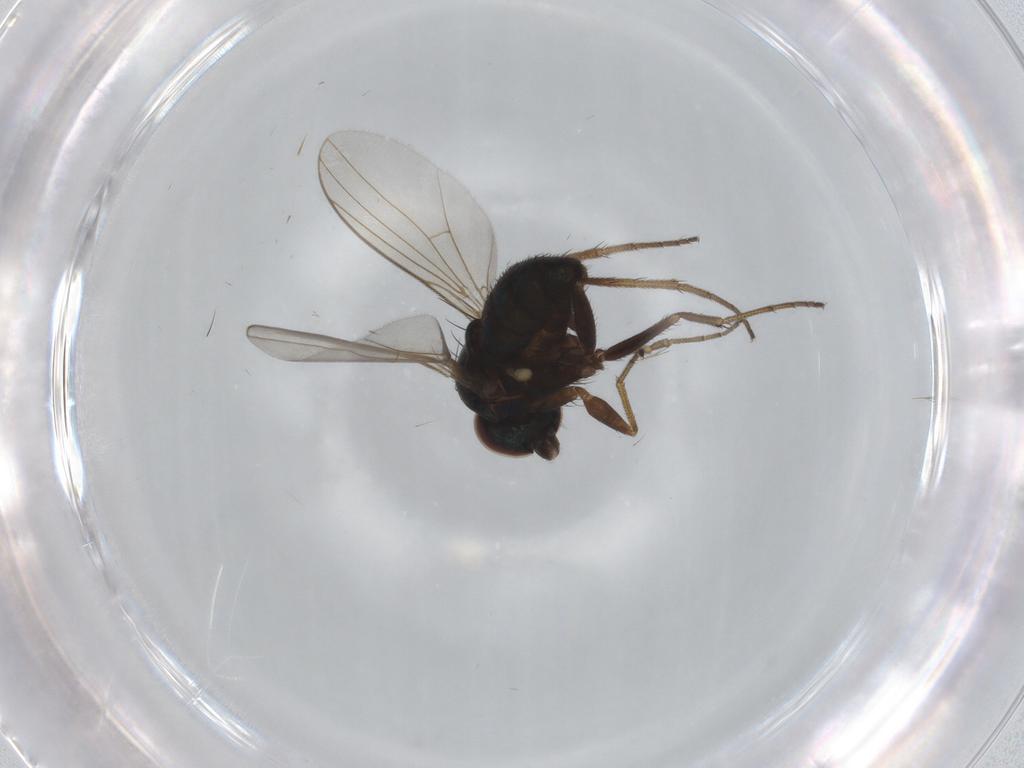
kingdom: Animalia
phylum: Arthropoda
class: Insecta
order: Diptera
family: Dolichopodidae
